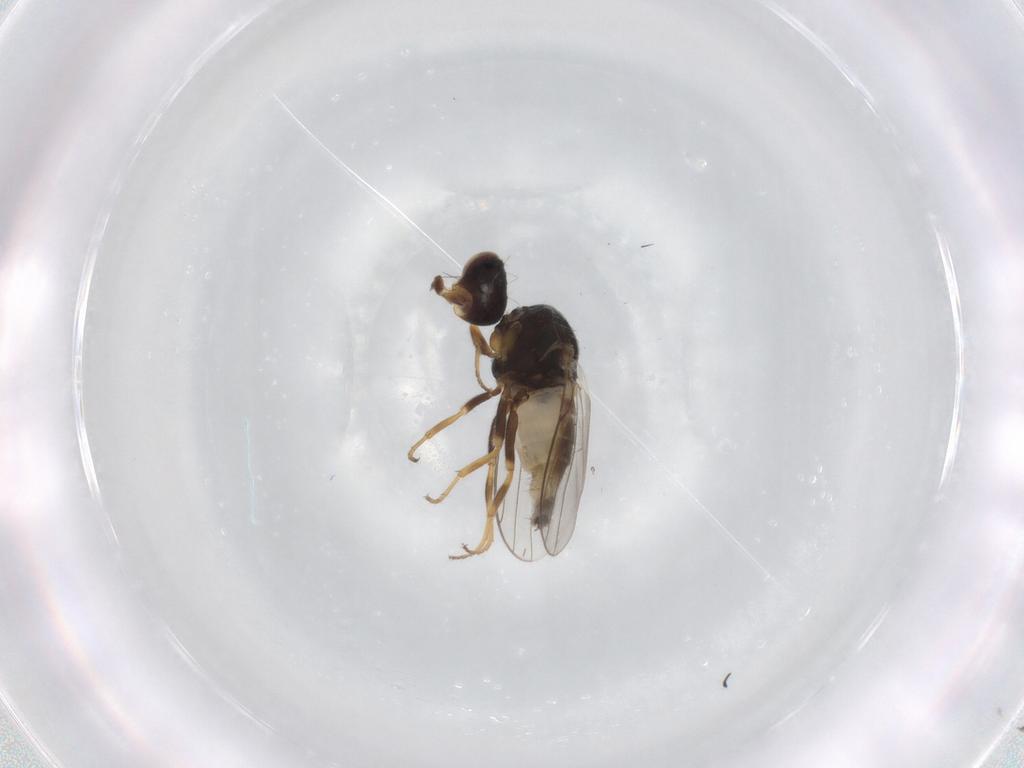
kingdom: Animalia
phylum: Arthropoda
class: Insecta
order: Diptera
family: Chloropidae
